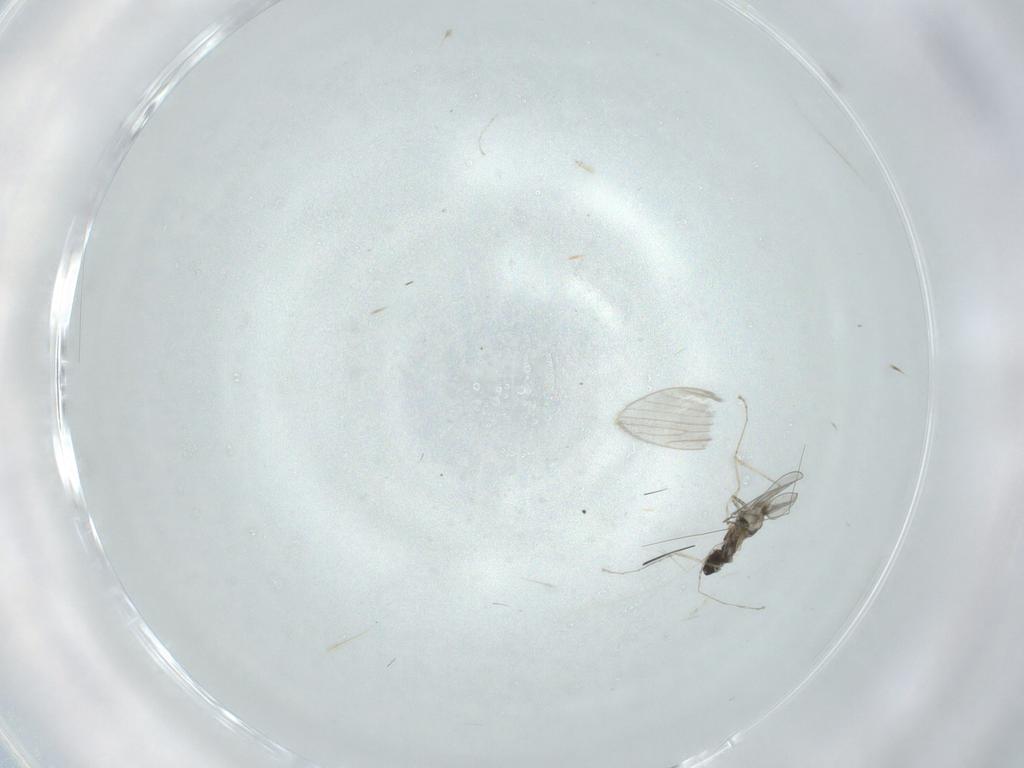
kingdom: Animalia
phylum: Arthropoda
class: Insecta
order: Diptera
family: Cecidomyiidae
